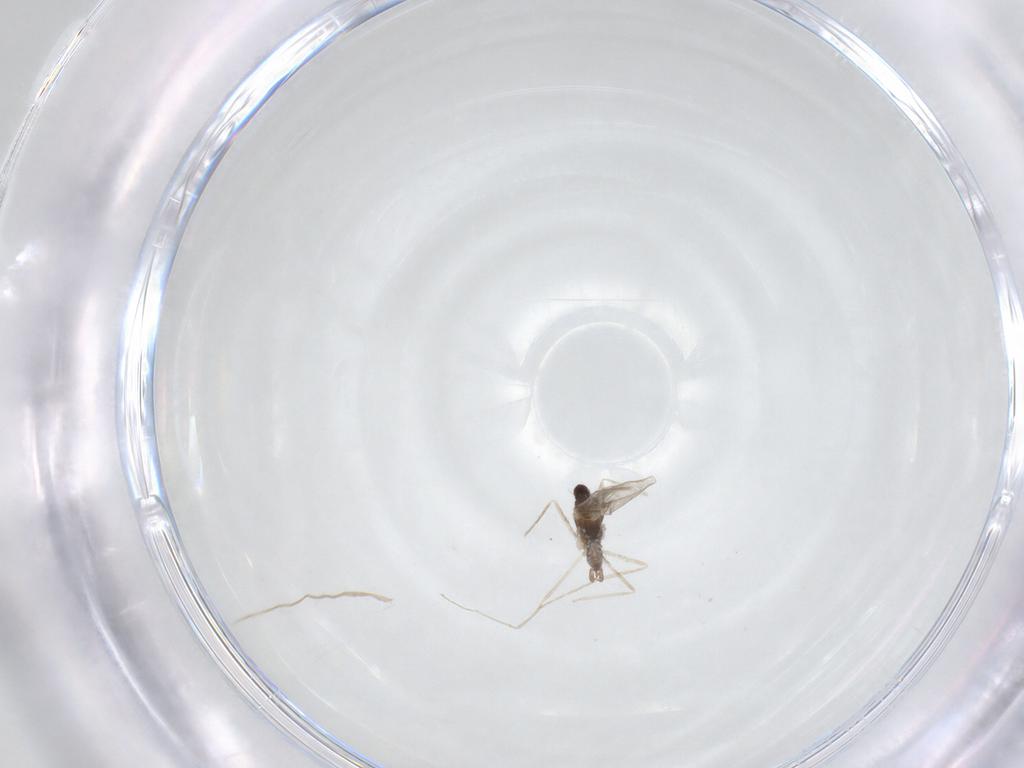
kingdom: Animalia
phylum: Arthropoda
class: Insecta
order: Diptera
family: Cecidomyiidae
